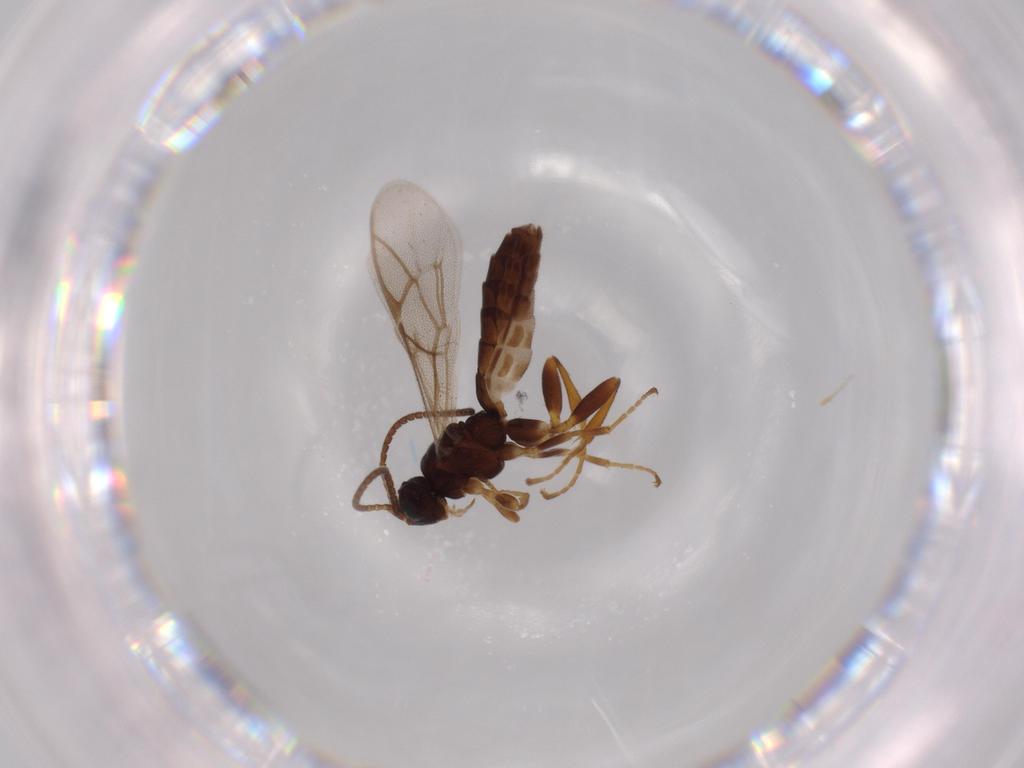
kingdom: Animalia
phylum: Arthropoda
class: Insecta
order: Hymenoptera
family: Ichneumonidae
